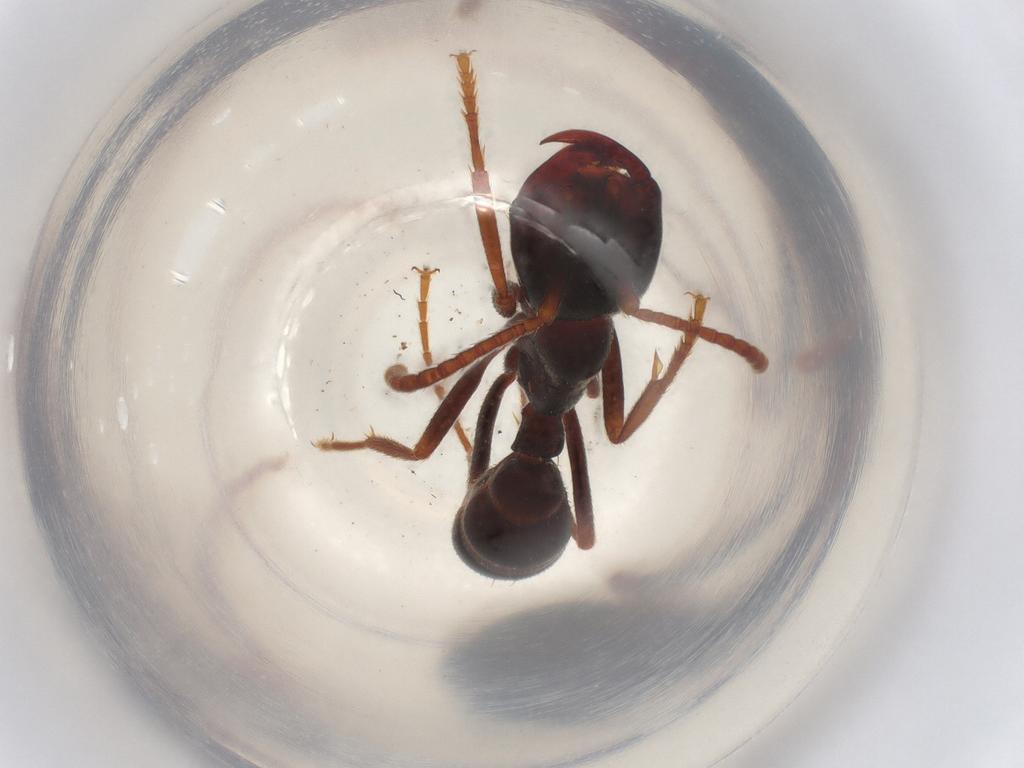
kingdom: Animalia
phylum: Arthropoda
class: Insecta
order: Hymenoptera
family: Formicidae
